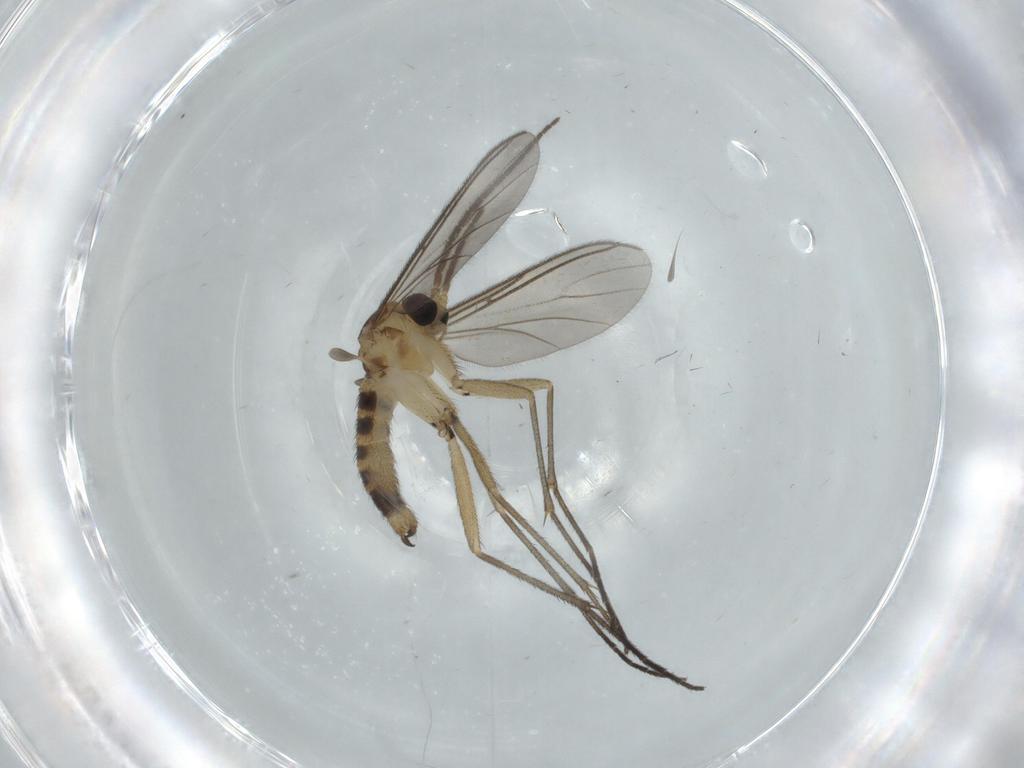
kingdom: Animalia
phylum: Arthropoda
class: Insecta
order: Diptera
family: Sciaridae
